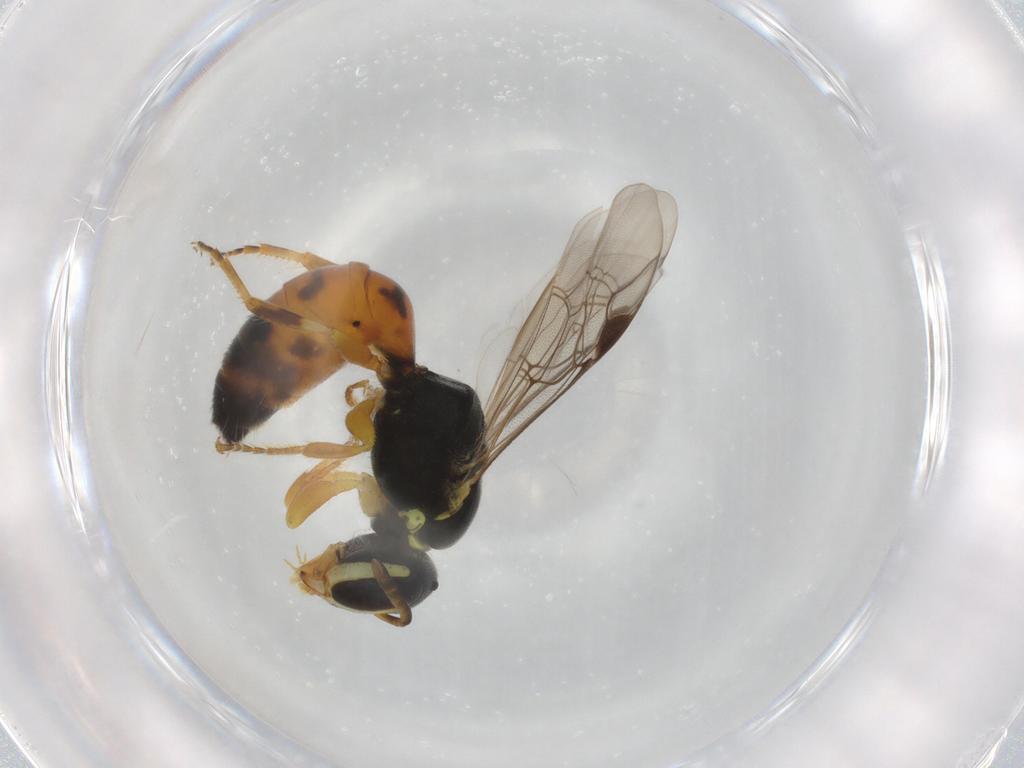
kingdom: Animalia
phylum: Arthropoda
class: Insecta
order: Hymenoptera
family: Colletidae
